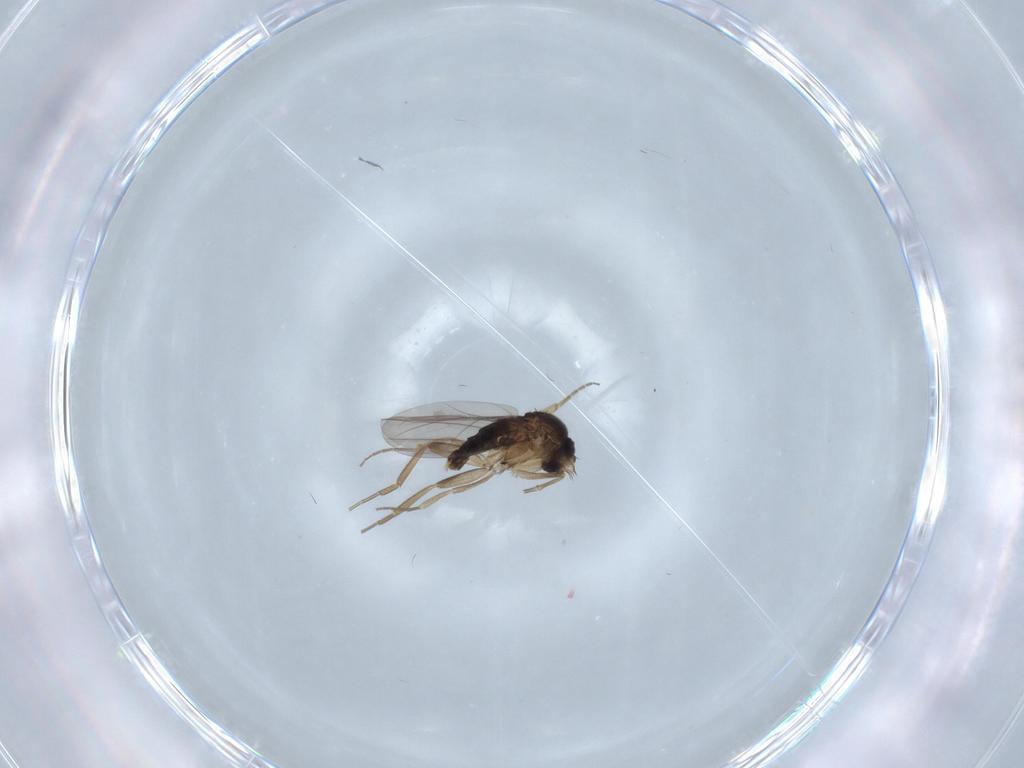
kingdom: Animalia
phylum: Arthropoda
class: Insecta
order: Diptera
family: Phoridae
